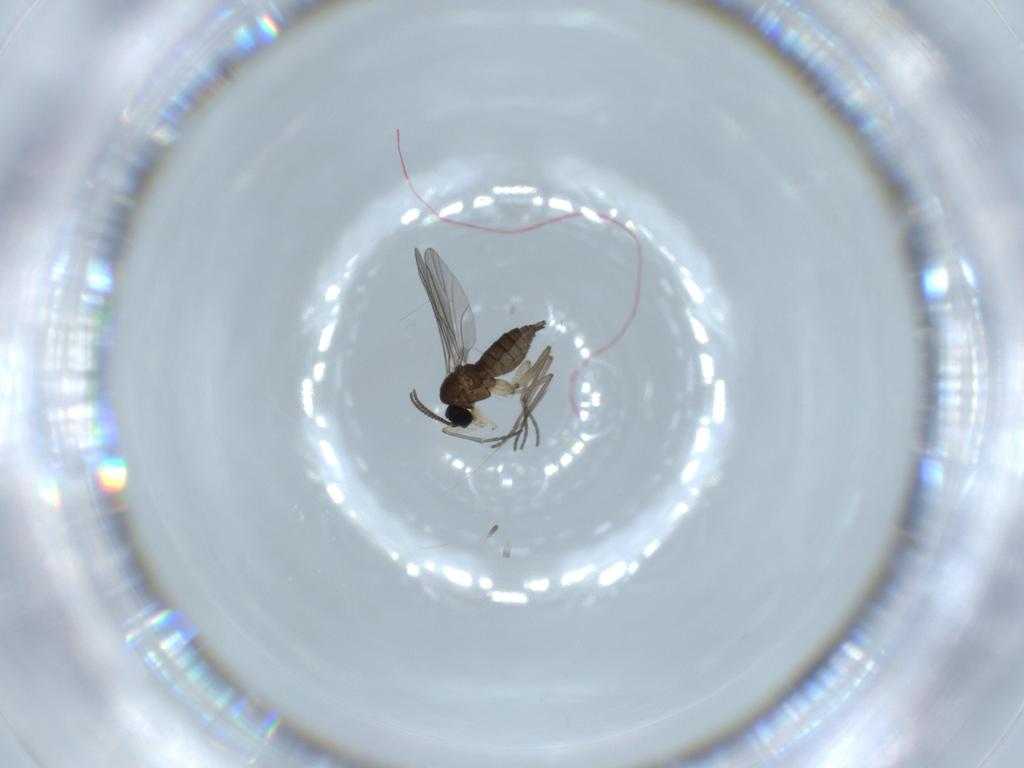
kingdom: Animalia
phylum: Arthropoda
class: Insecta
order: Diptera
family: Sciaridae
